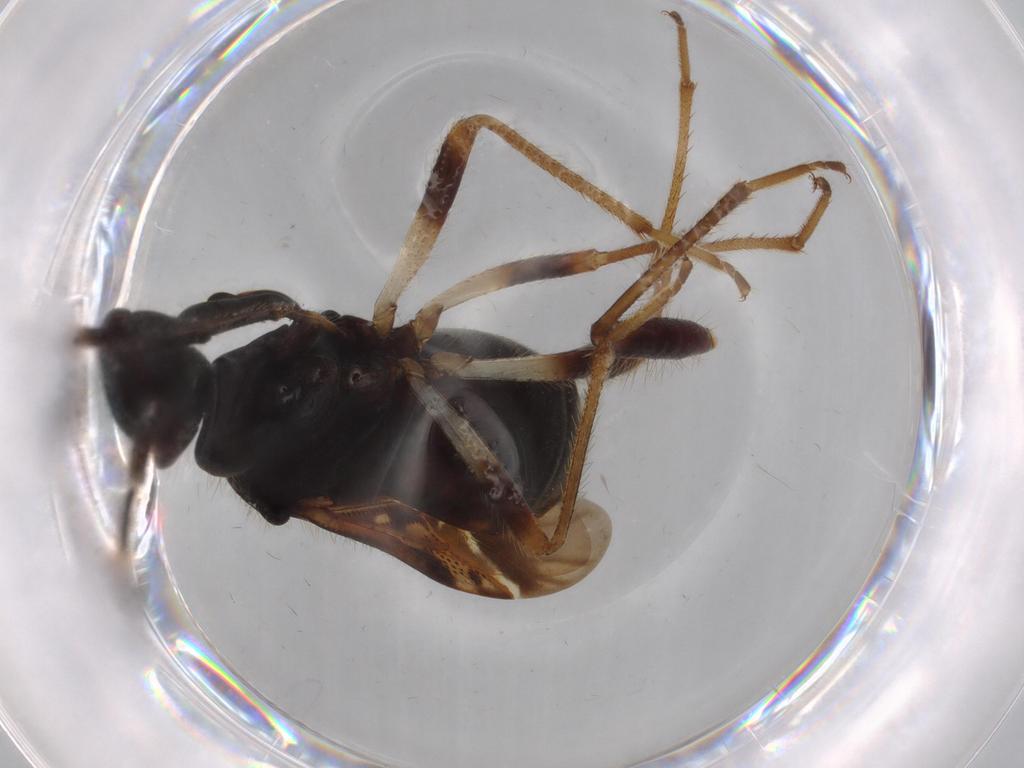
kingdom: Animalia
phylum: Arthropoda
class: Insecta
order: Hemiptera
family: Rhyparochromidae
